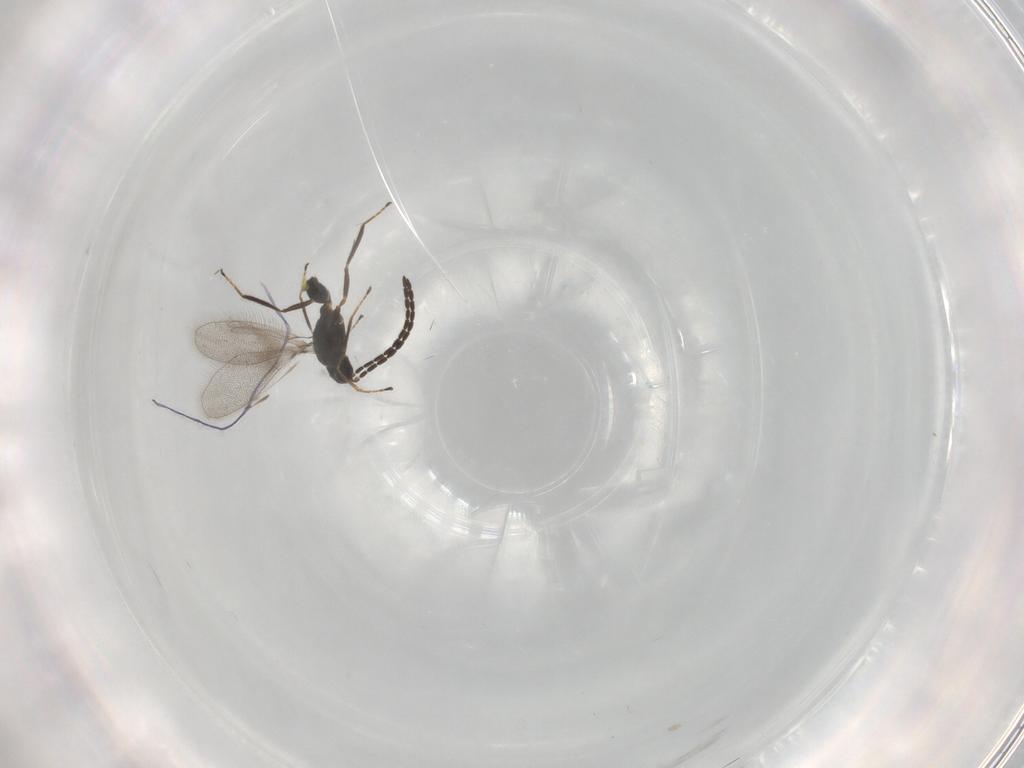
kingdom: Animalia
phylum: Arthropoda
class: Insecta
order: Hymenoptera
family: Mymaridae
